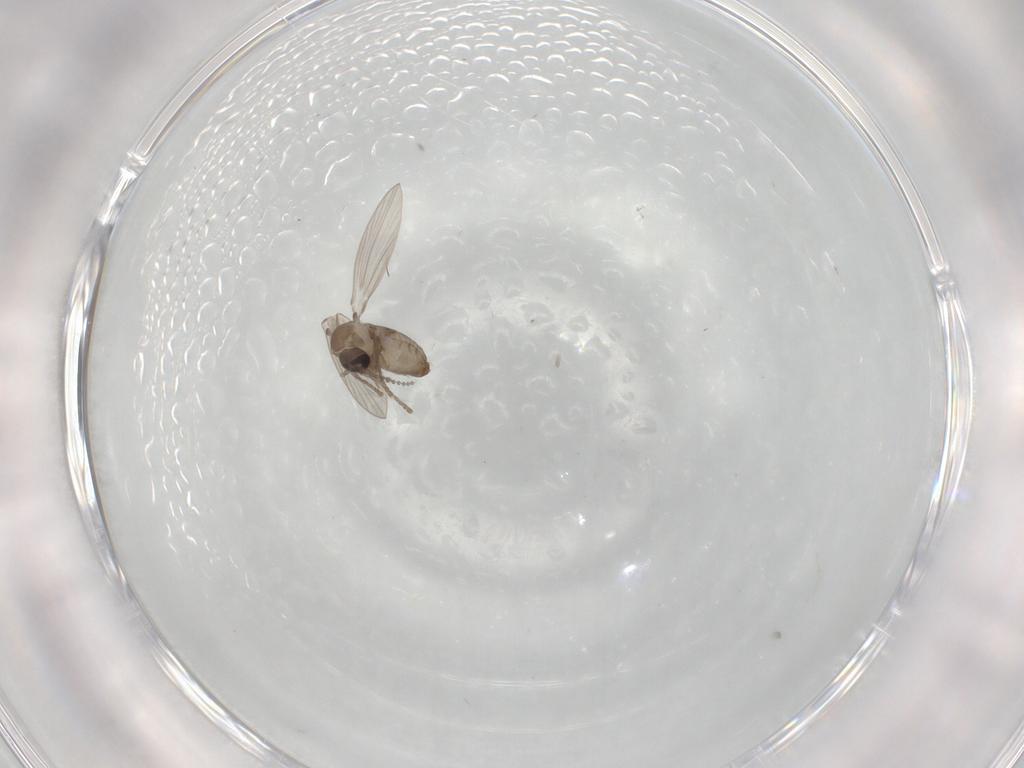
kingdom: Animalia
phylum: Arthropoda
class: Insecta
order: Diptera
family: Psychodidae
